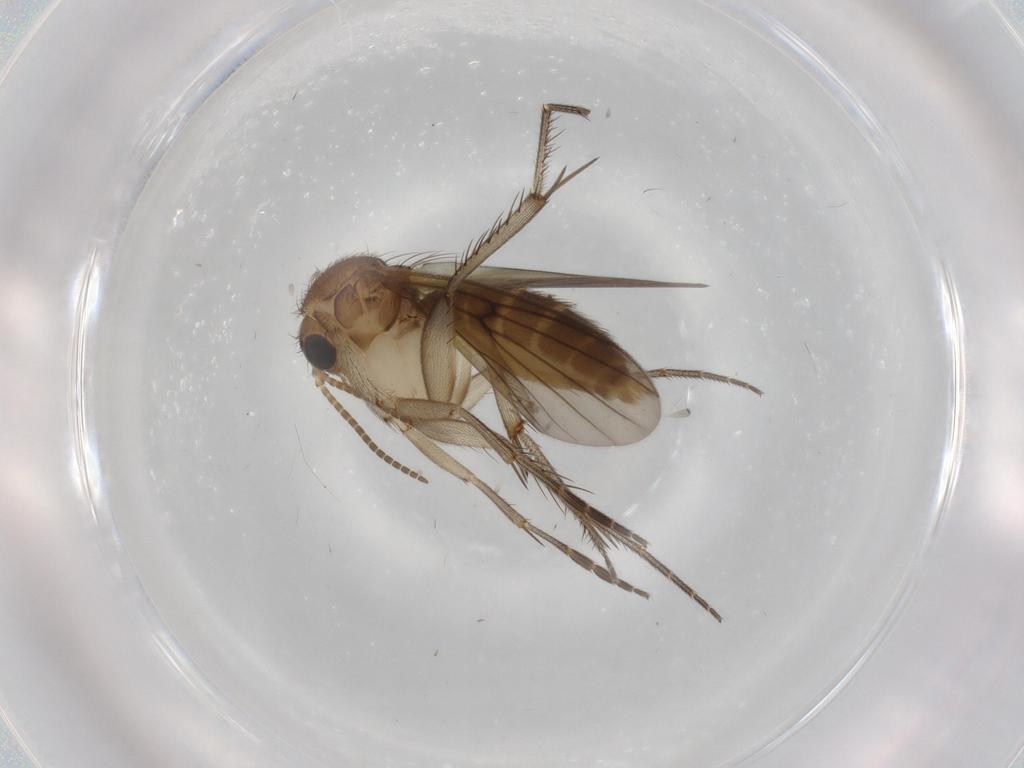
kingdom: Animalia
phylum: Arthropoda
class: Insecta
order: Diptera
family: Mycetophilidae
